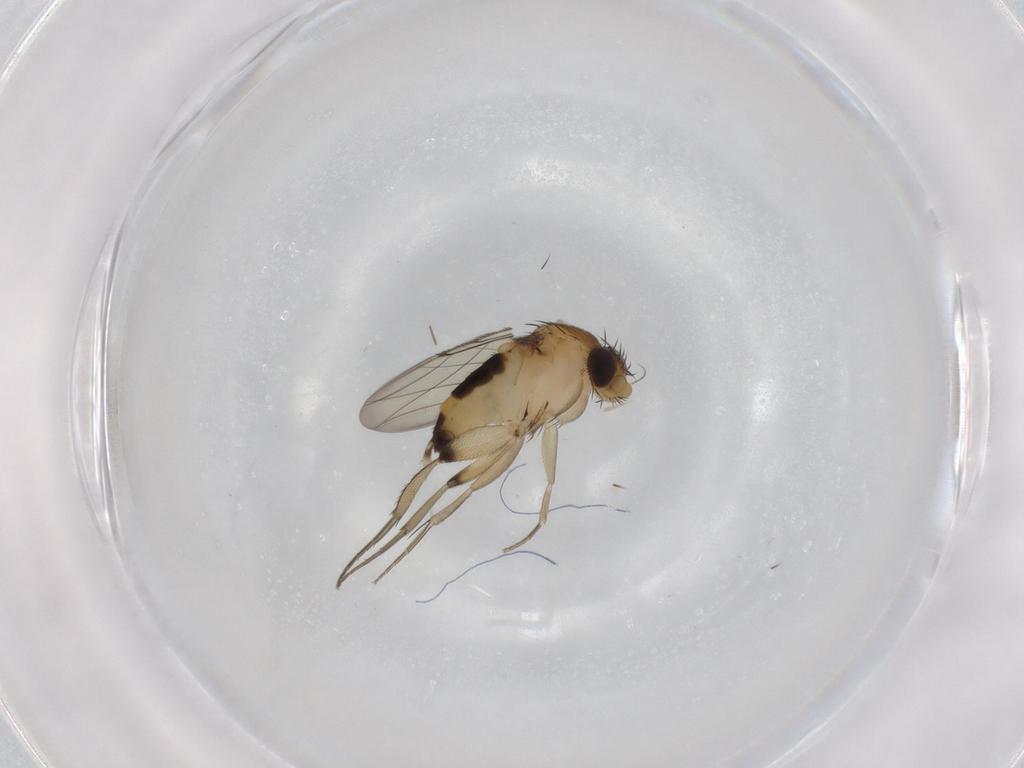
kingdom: Animalia
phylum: Arthropoda
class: Insecta
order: Diptera
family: Phoridae
